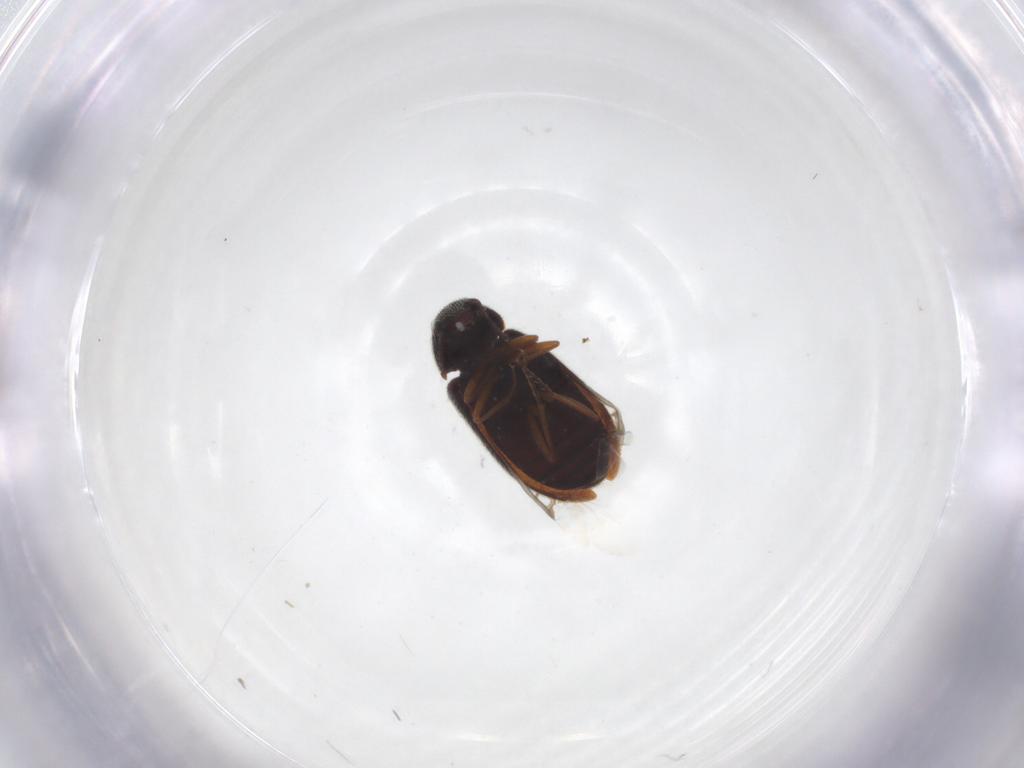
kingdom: Animalia
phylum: Arthropoda
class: Insecta
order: Coleoptera
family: Rhadalidae
